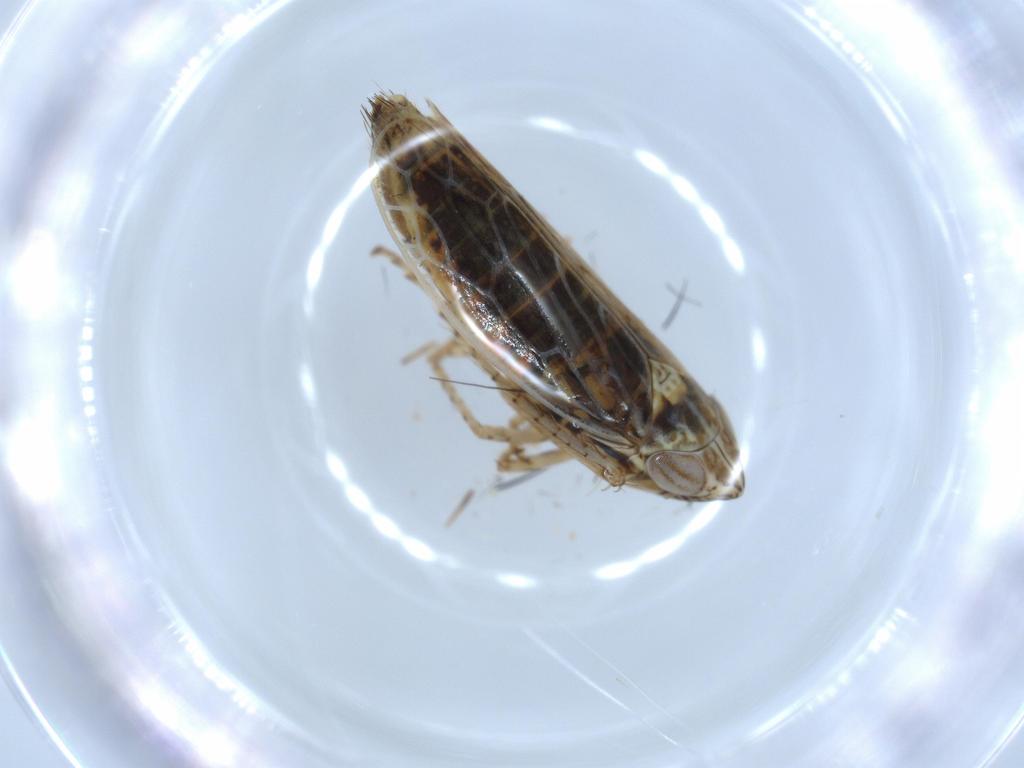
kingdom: Animalia
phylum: Arthropoda
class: Insecta
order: Hemiptera
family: Cicadellidae
